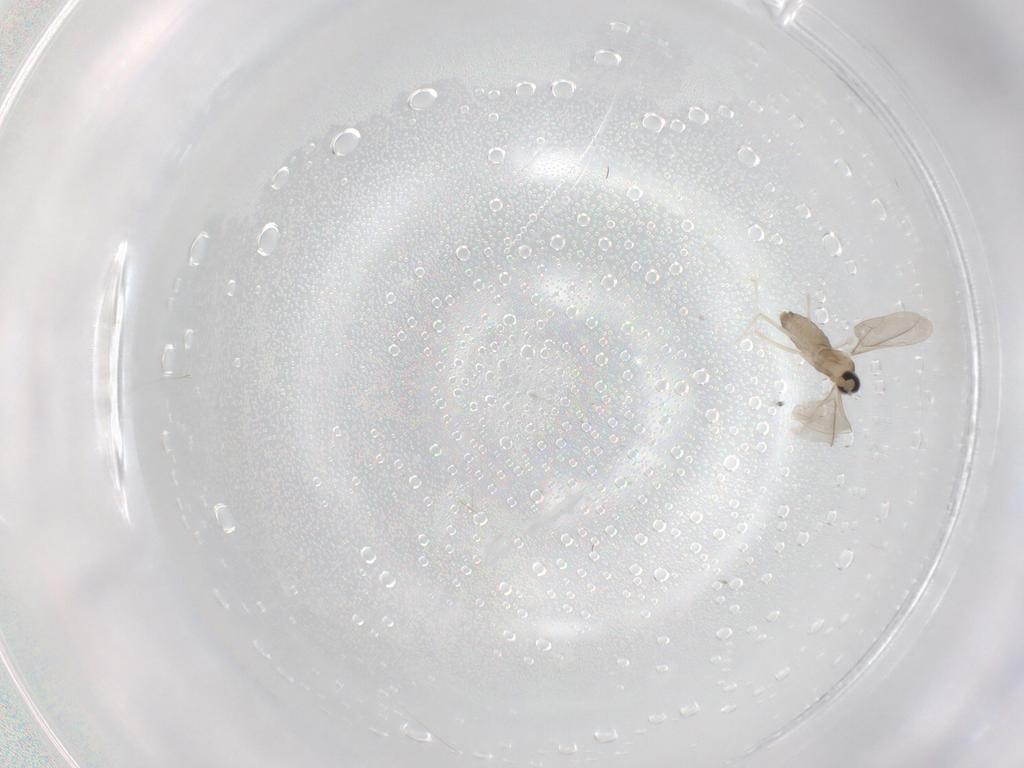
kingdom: Animalia
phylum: Arthropoda
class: Insecta
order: Diptera
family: Cecidomyiidae
